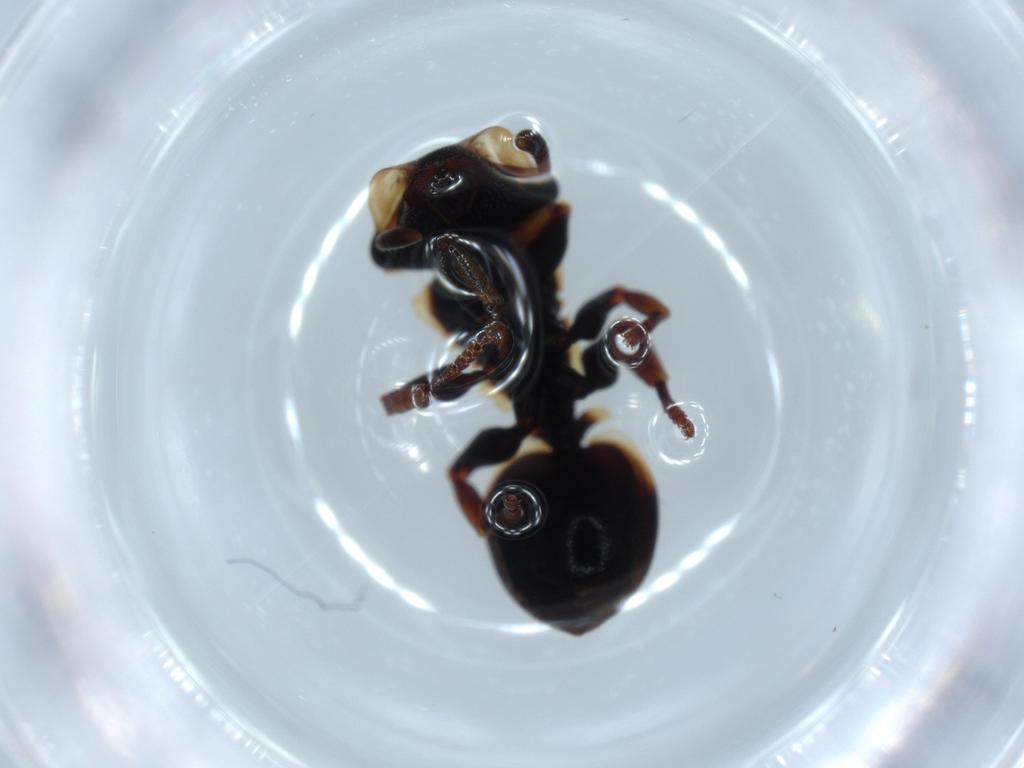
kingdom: Animalia
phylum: Arthropoda
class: Insecta
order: Hymenoptera
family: Formicidae
